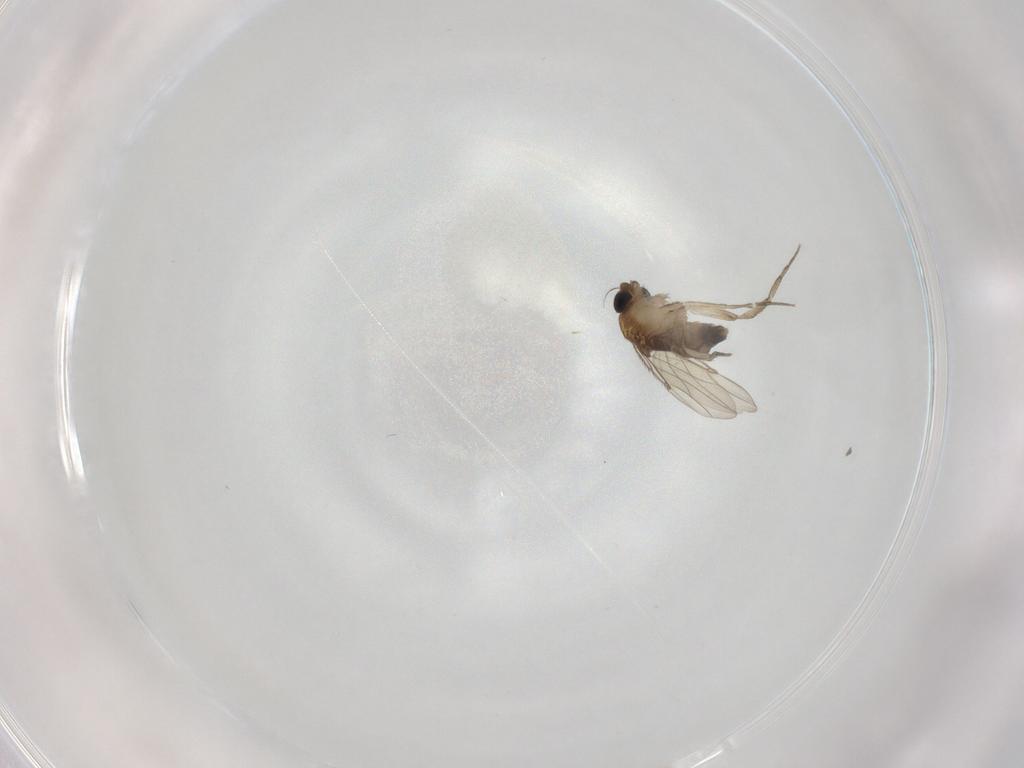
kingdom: Animalia
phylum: Arthropoda
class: Insecta
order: Diptera
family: Phoridae
